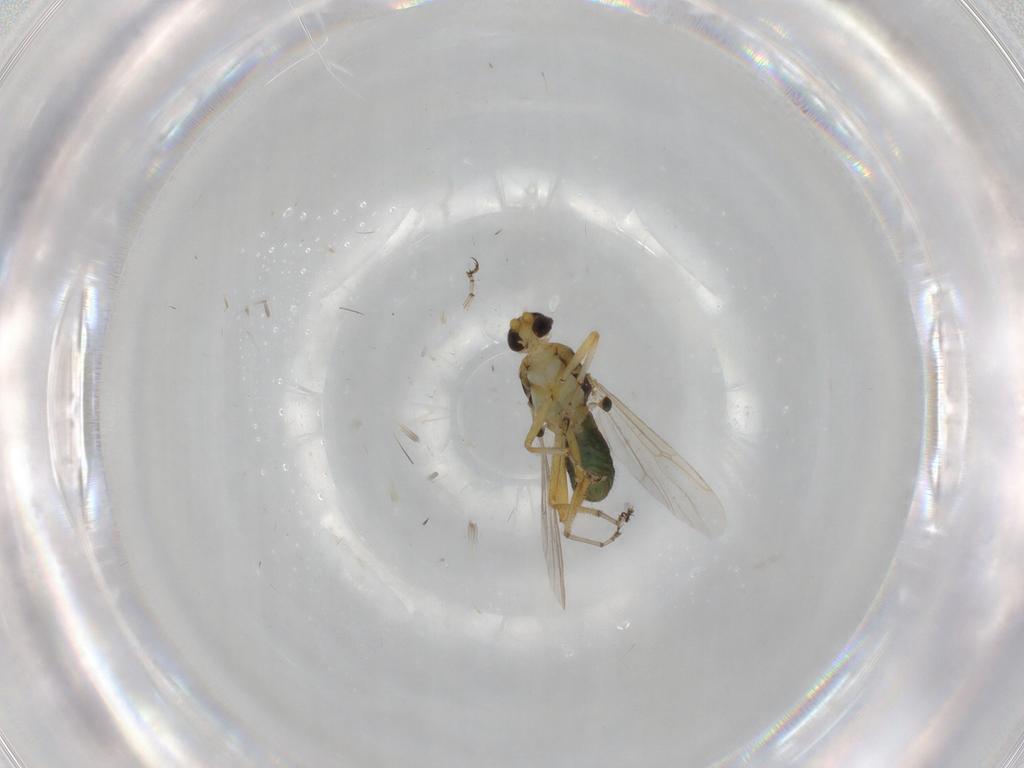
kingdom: Animalia
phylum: Arthropoda
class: Insecta
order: Diptera
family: Ceratopogonidae
